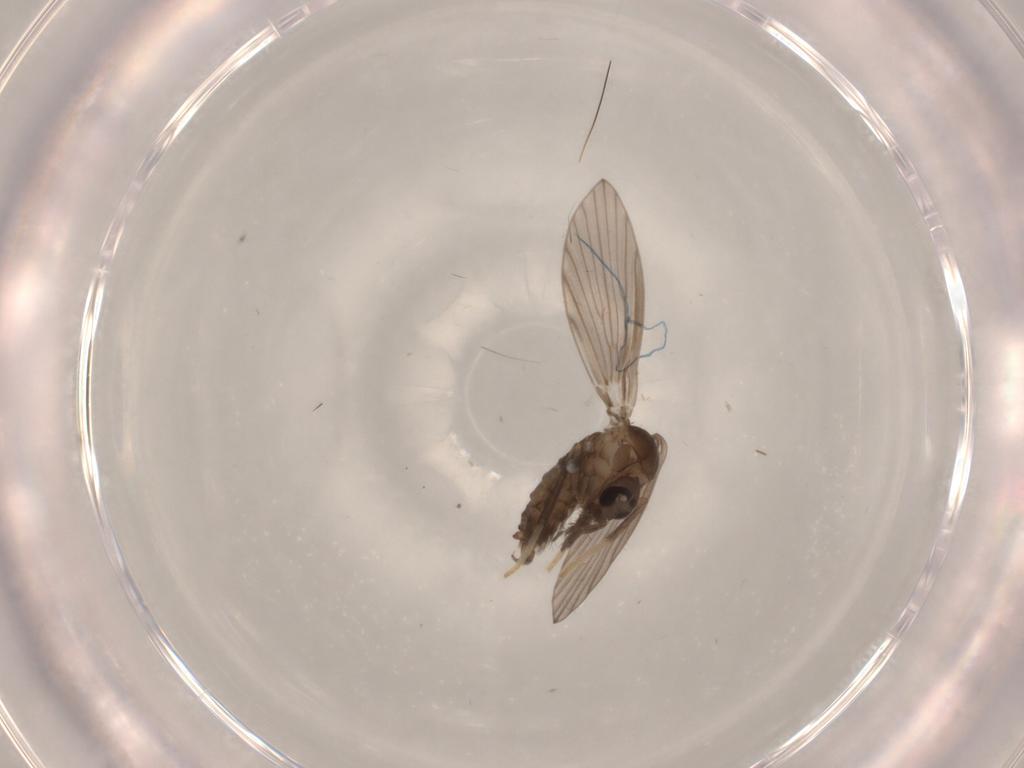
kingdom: Animalia
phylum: Arthropoda
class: Insecta
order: Diptera
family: Psychodidae
